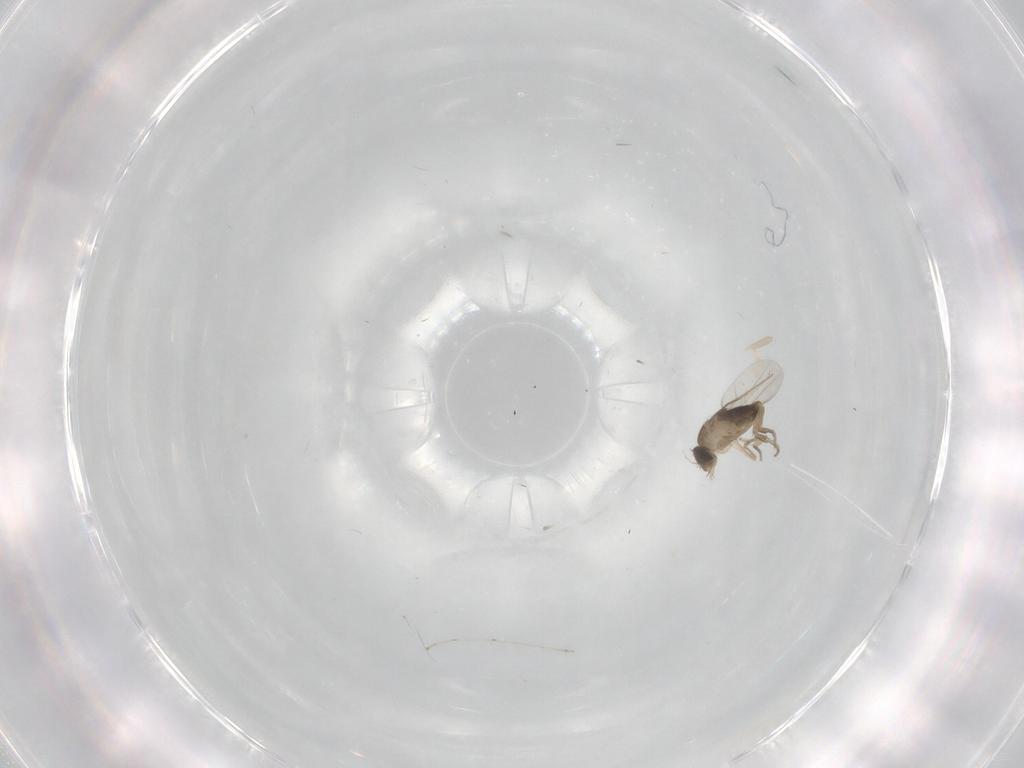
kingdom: Animalia
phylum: Arthropoda
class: Insecta
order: Diptera
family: Phoridae
